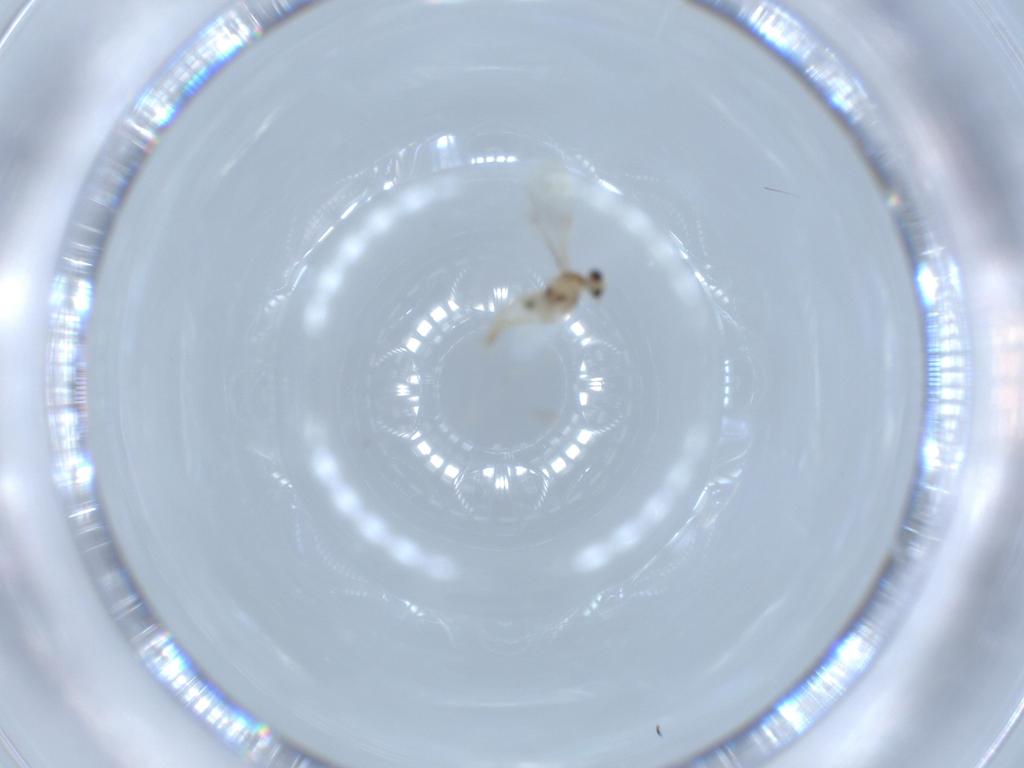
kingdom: Animalia
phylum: Arthropoda
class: Insecta
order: Diptera
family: Cecidomyiidae
